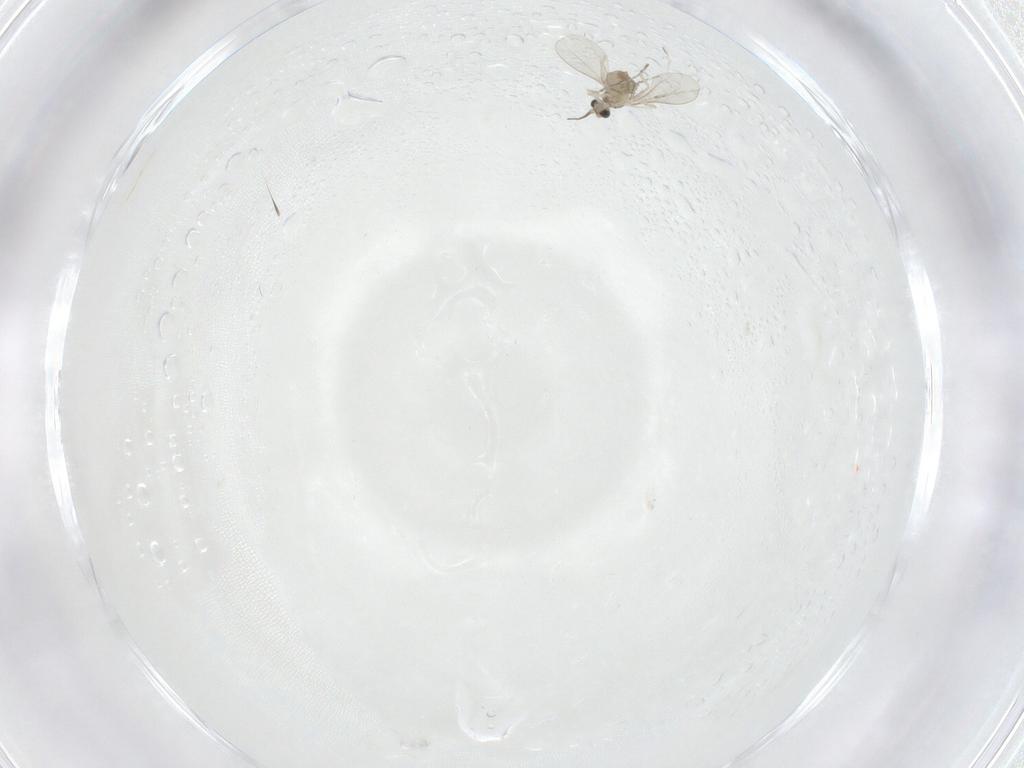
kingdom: Animalia
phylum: Arthropoda
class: Insecta
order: Diptera
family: Cecidomyiidae
